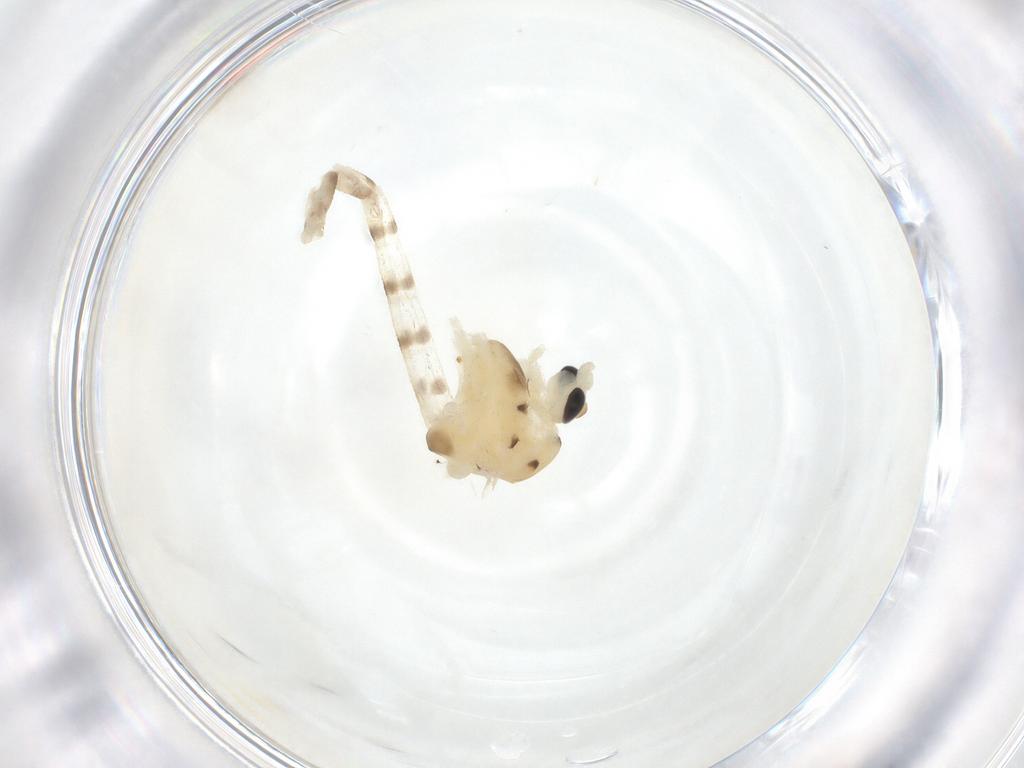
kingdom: Animalia
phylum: Arthropoda
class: Insecta
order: Diptera
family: Chironomidae
